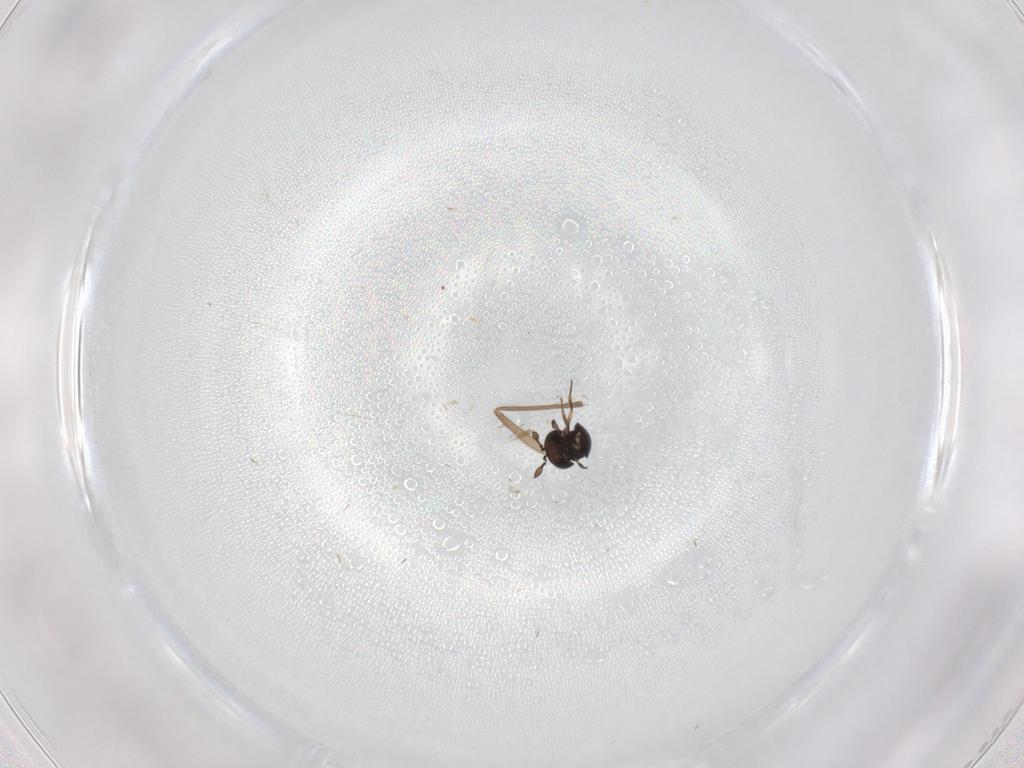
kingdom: Animalia
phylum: Arthropoda
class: Insecta
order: Hymenoptera
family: Scelionidae
